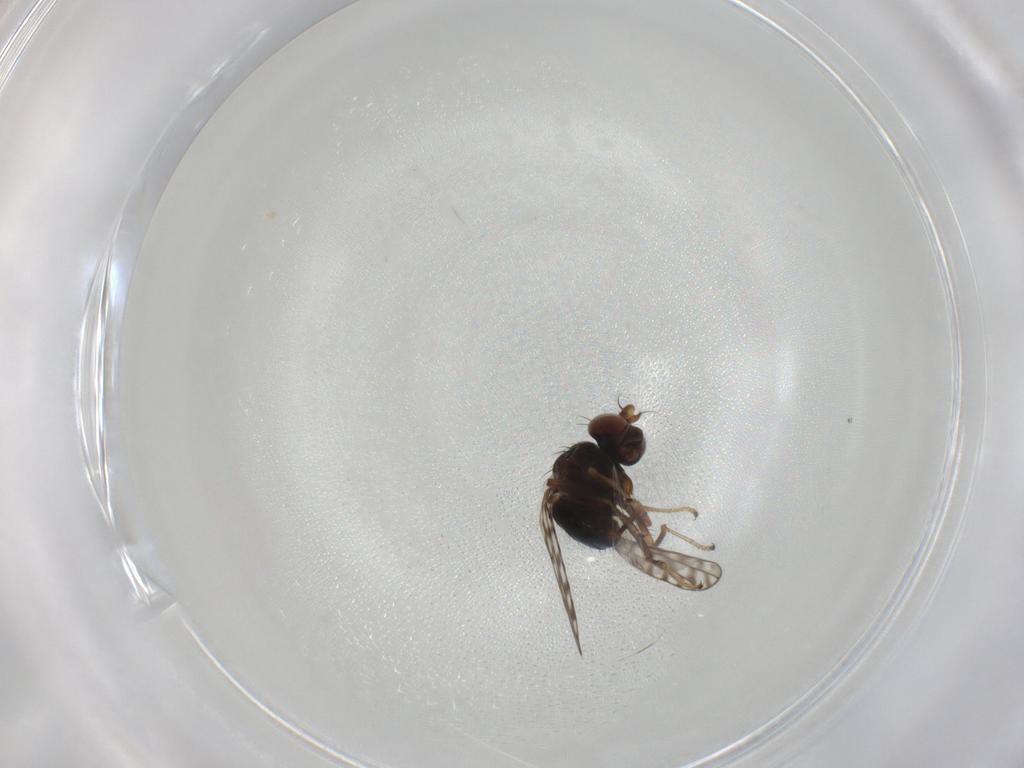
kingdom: Animalia
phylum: Arthropoda
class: Insecta
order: Diptera
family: Ephydridae
